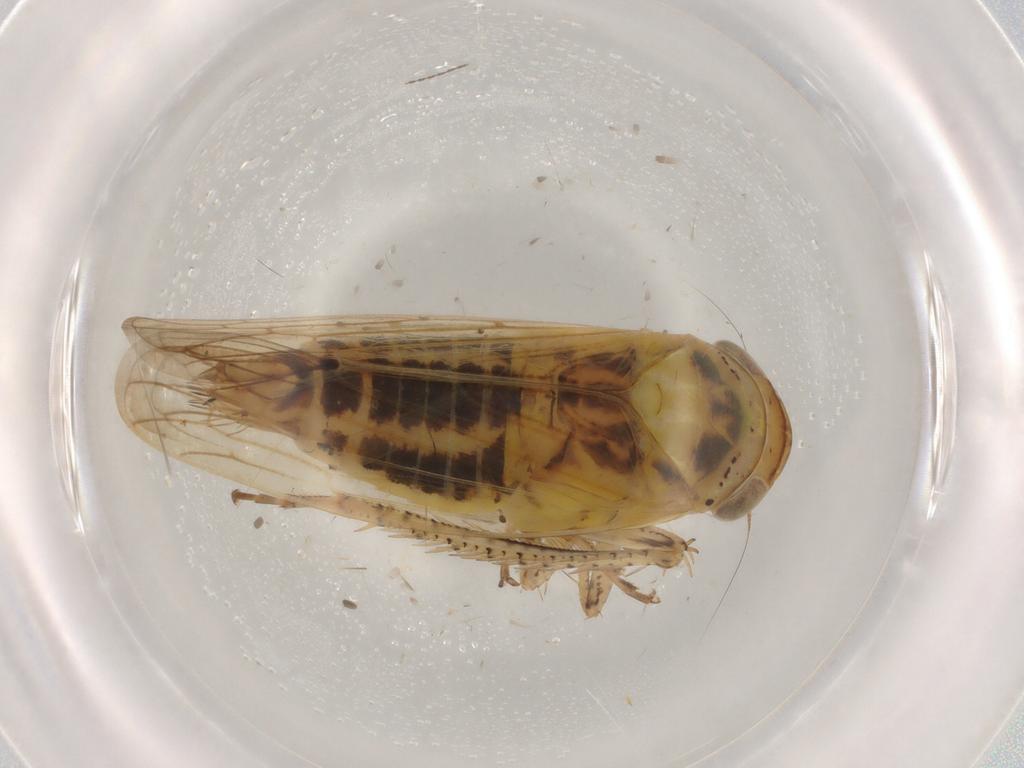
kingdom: Animalia
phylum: Arthropoda
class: Insecta
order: Hemiptera
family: Cicadellidae
